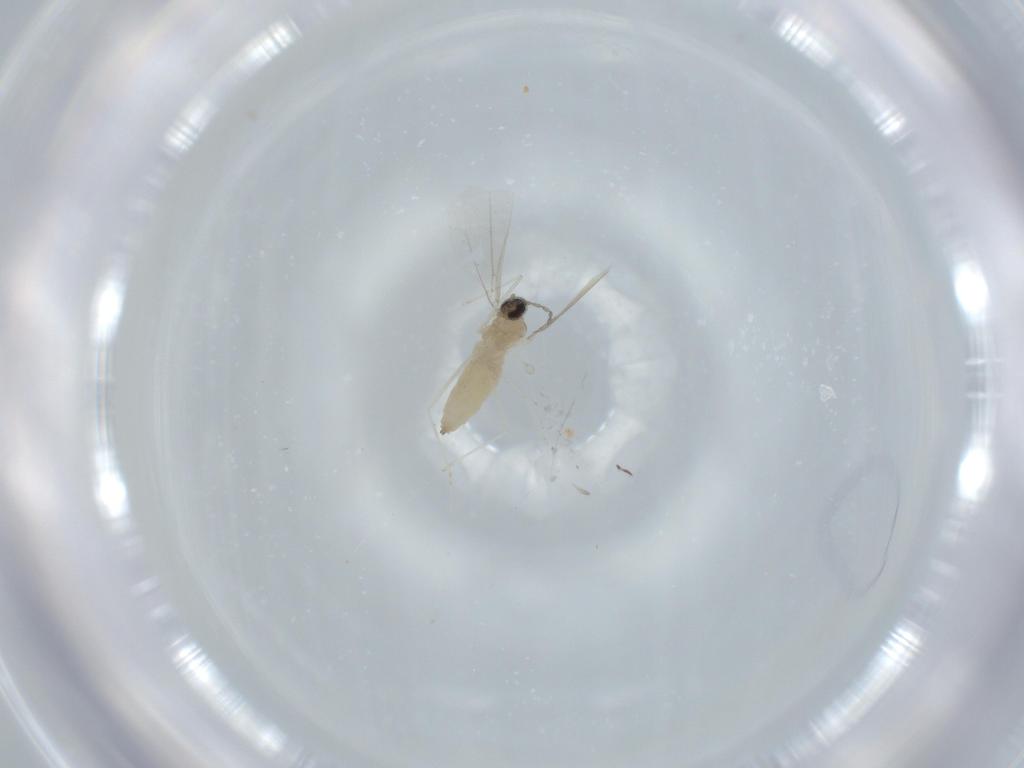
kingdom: Animalia
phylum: Arthropoda
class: Insecta
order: Diptera
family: Cecidomyiidae
